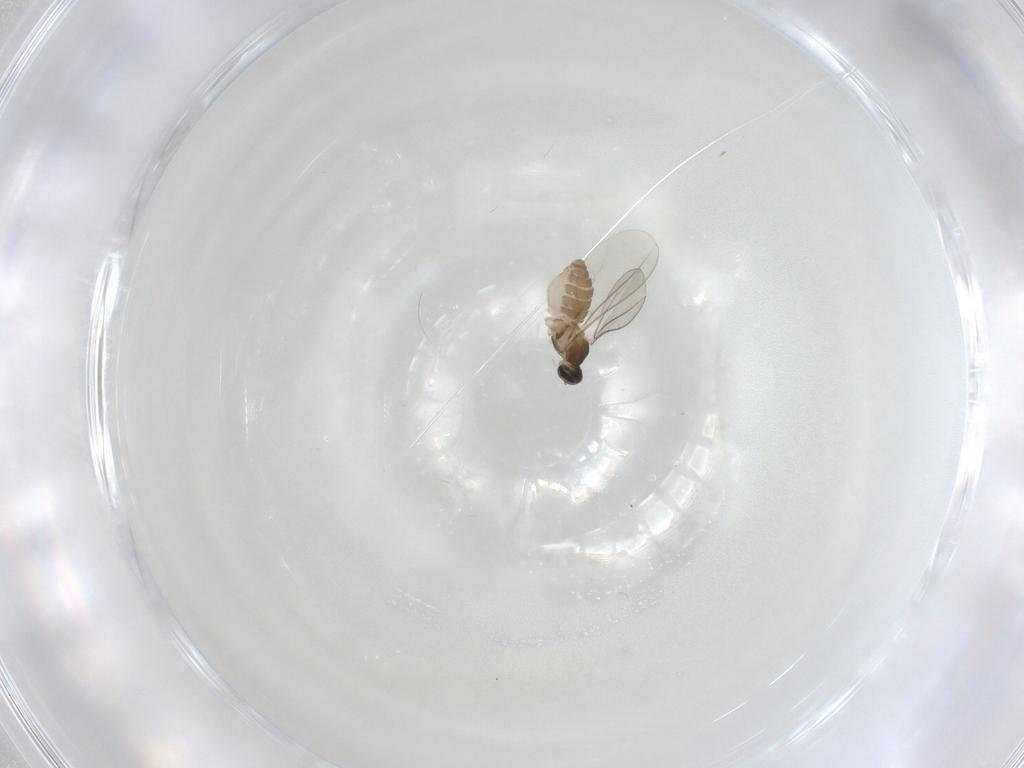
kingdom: Animalia
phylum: Arthropoda
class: Insecta
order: Diptera
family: Cecidomyiidae
